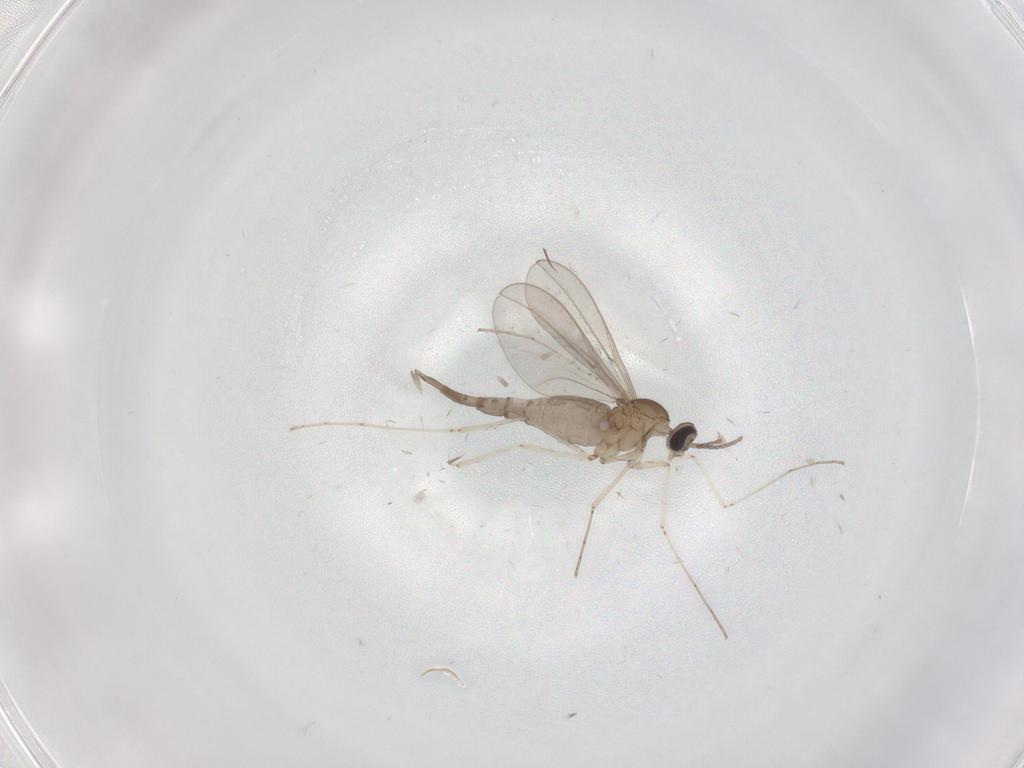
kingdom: Animalia
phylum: Arthropoda
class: Insecta
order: Diptera
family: Cecidomyiidae
